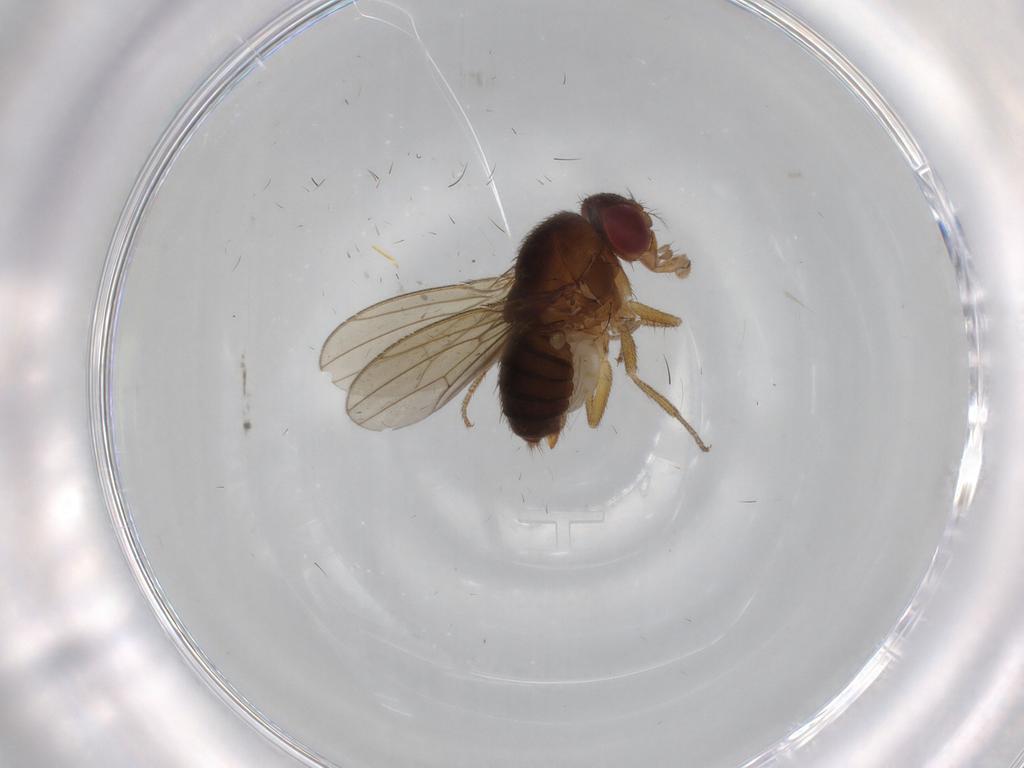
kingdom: Animalia
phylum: Arthropoda
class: Insecta
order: Diptera
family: Drosophilidae
